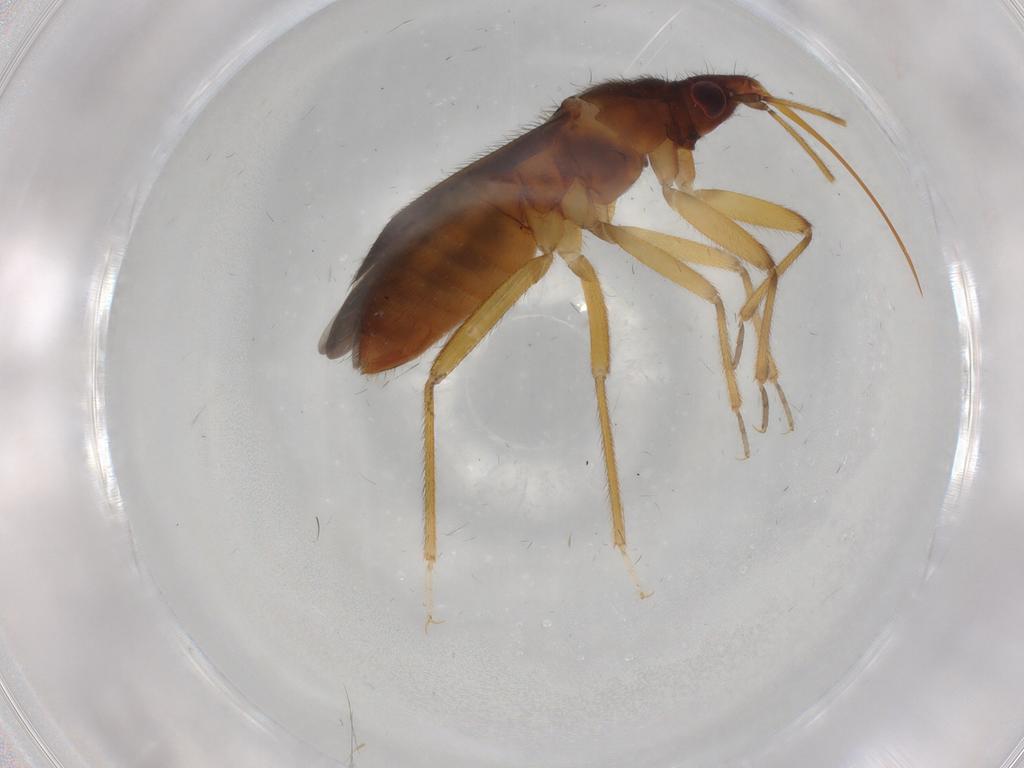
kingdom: Animalia
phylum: Arthropoda
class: Insecta
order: Hemiptera
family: Anthocoridae
